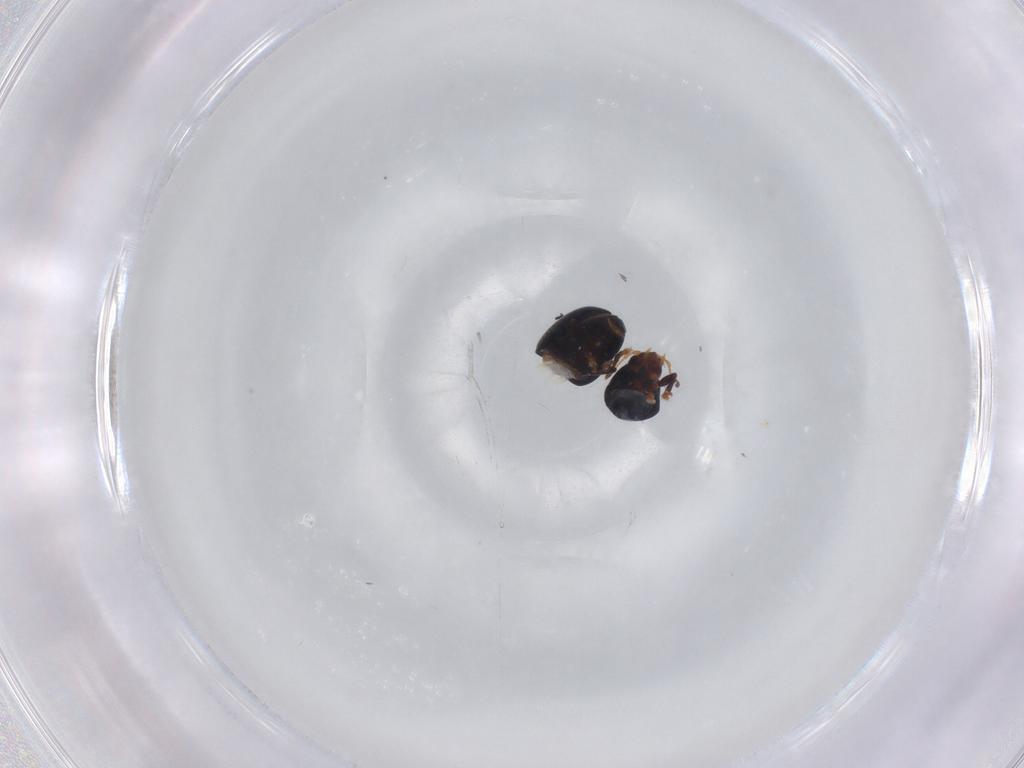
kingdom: Animalia
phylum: Arthropoda
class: Insecta
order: Coleoptera
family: Anthribidae
